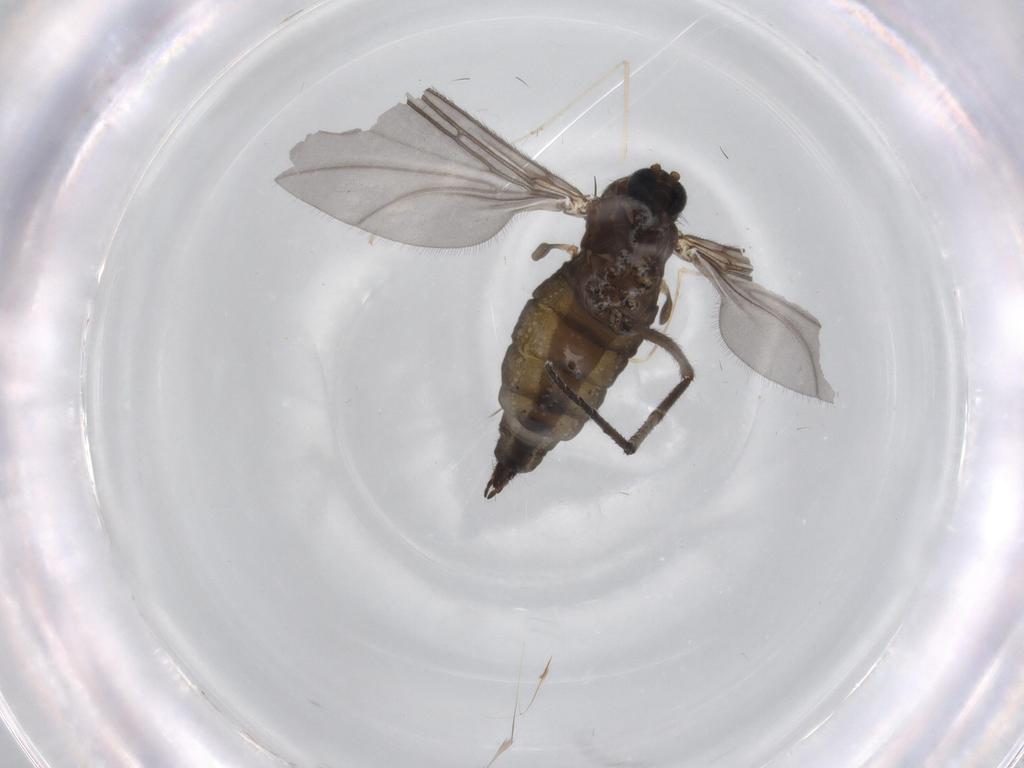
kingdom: Animalia
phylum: Arthropoda
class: Insecta
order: Diptera
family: Sciaridae
